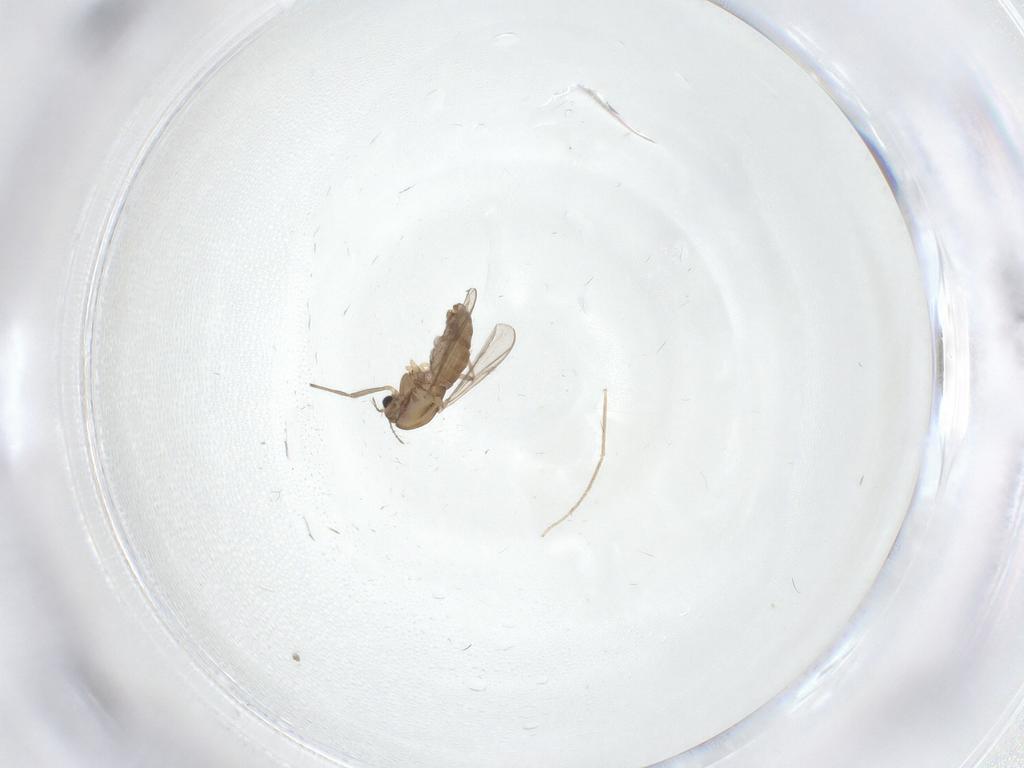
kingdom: Animalia
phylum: Arthropoda
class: Insecta
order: Diptera
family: Chironomidae
